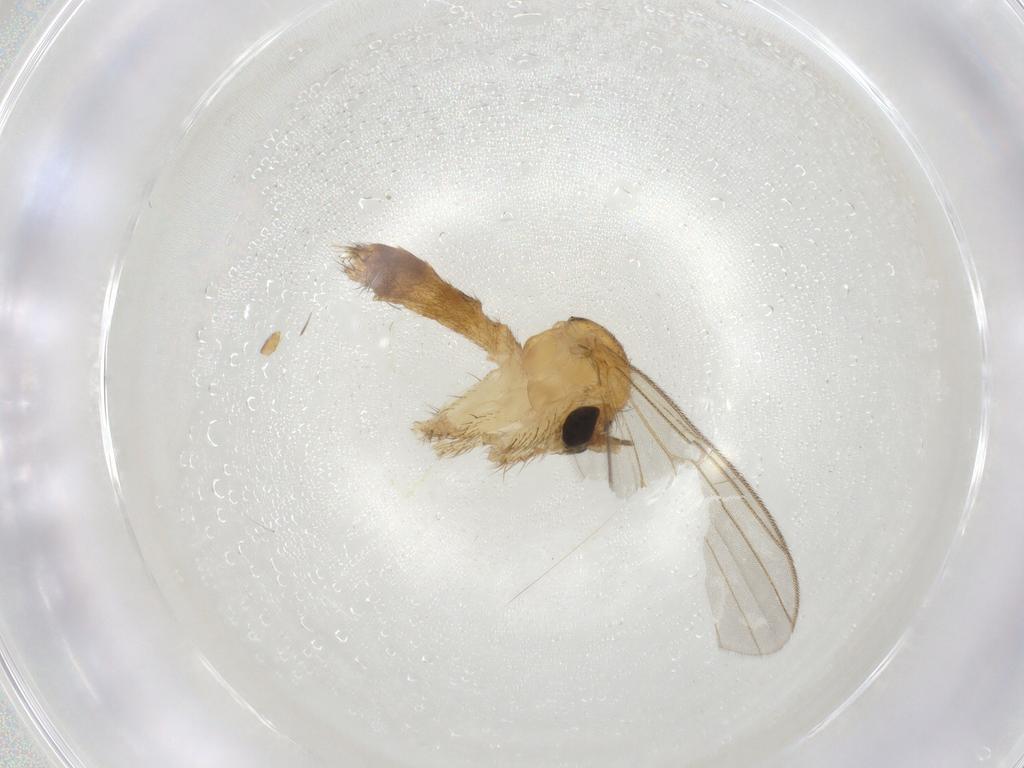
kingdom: Animalia
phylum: Arthropoda
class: Insecta
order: Diptera
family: Mycetophilidae
